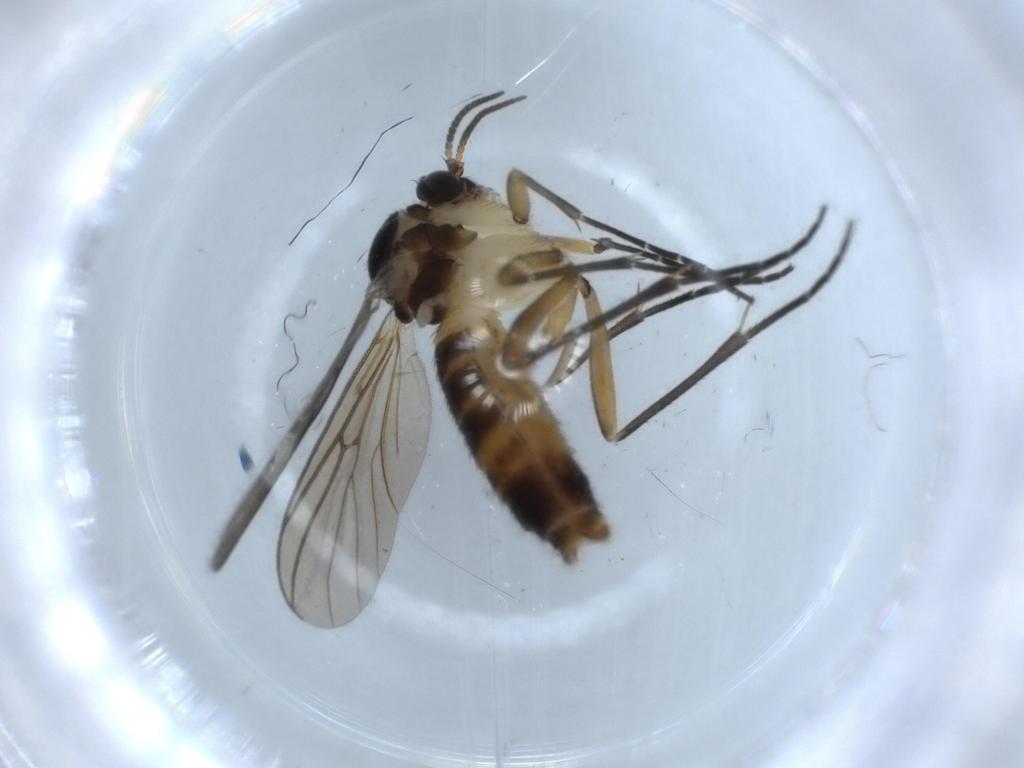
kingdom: Animalia
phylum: Arthropoda
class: Insecta
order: Diptera
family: Mycetophilidae
